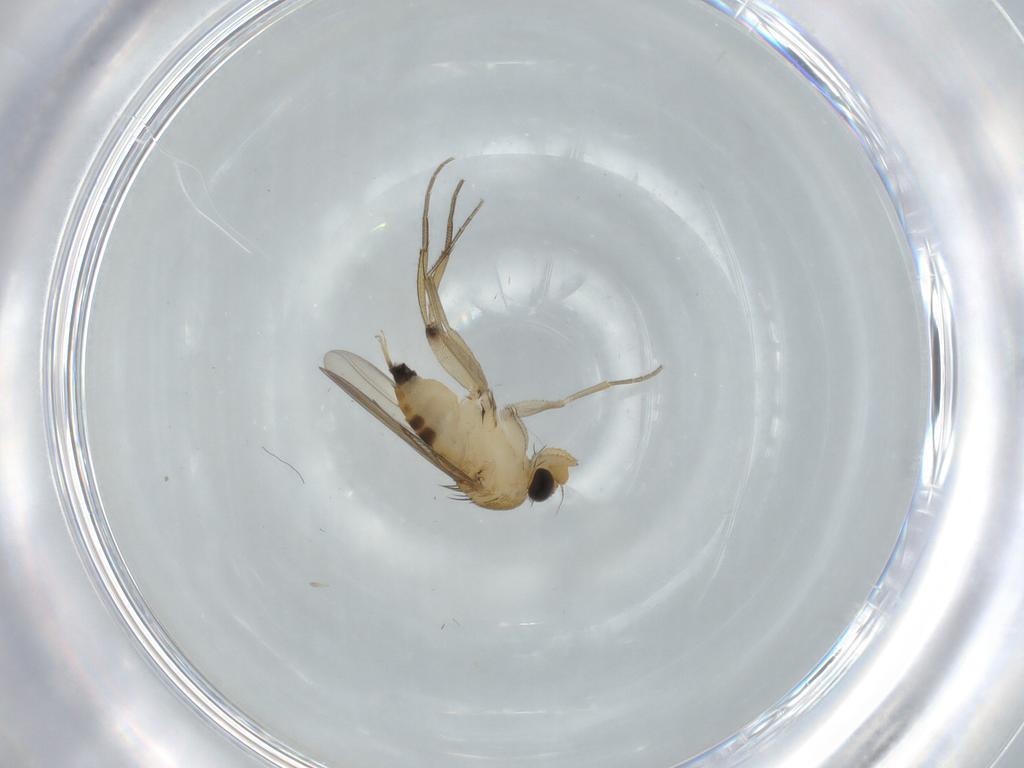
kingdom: Animalia
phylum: Arthropoda
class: Insecta
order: Diptera
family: Phoridae
